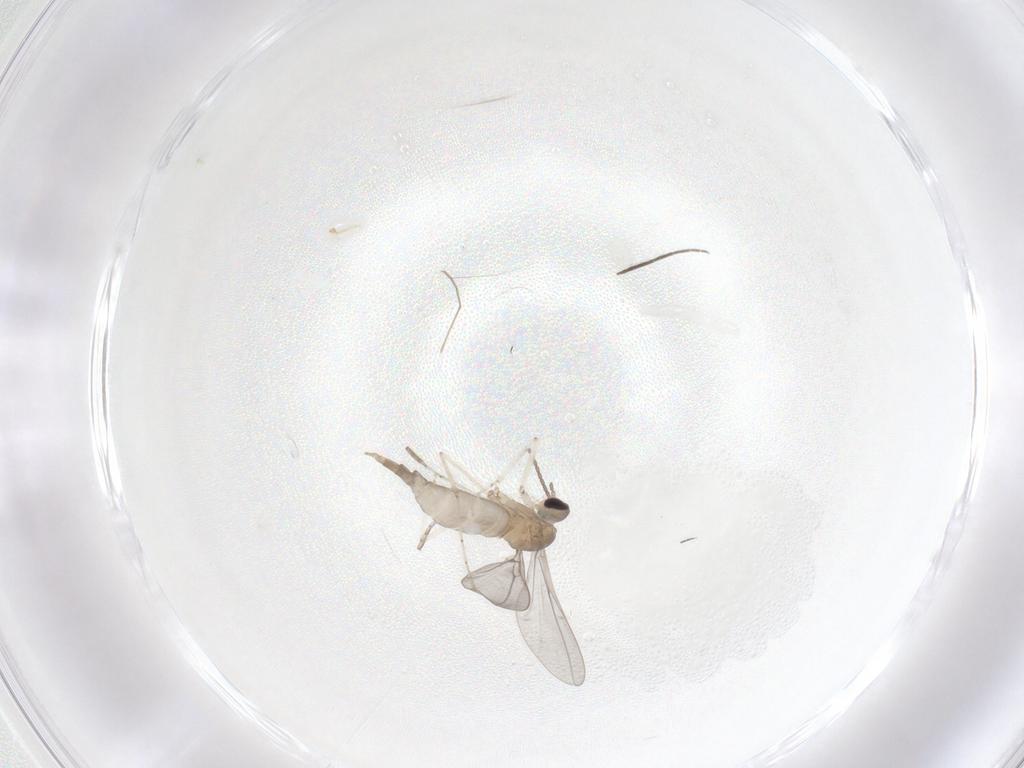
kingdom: Animalia
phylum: Arthropoda
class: Insecta
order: Diptera
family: Cecidomyiidae
